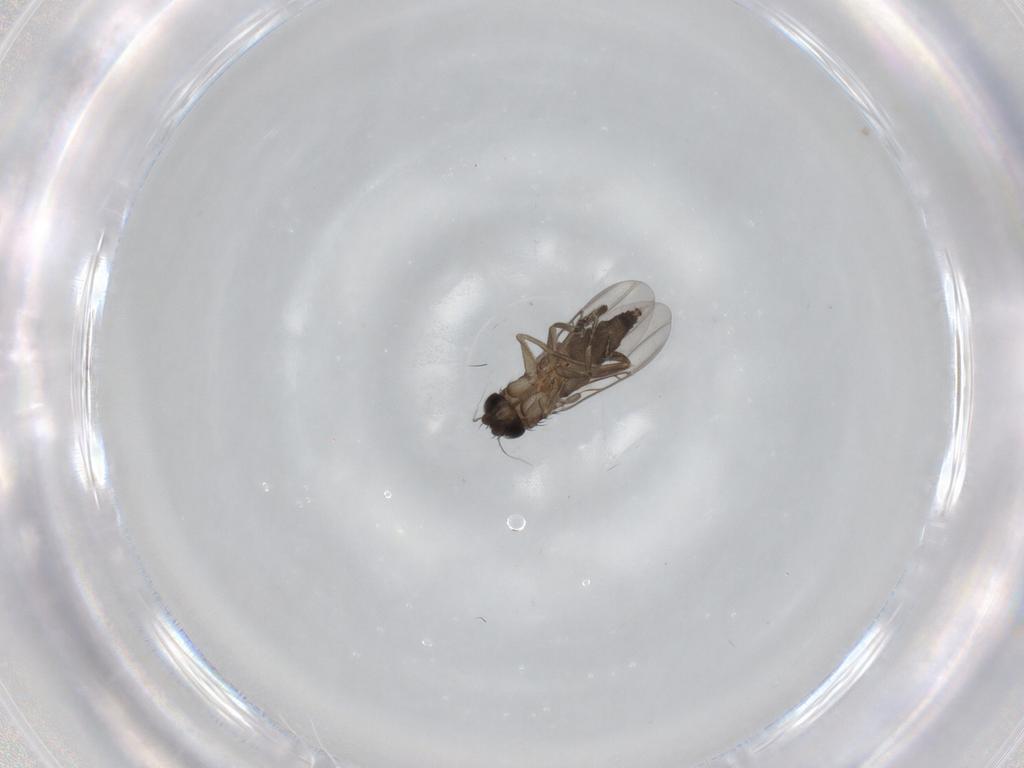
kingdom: Animalia
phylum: Arthropoda
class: Insecta
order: Diptera
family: Phoridae
